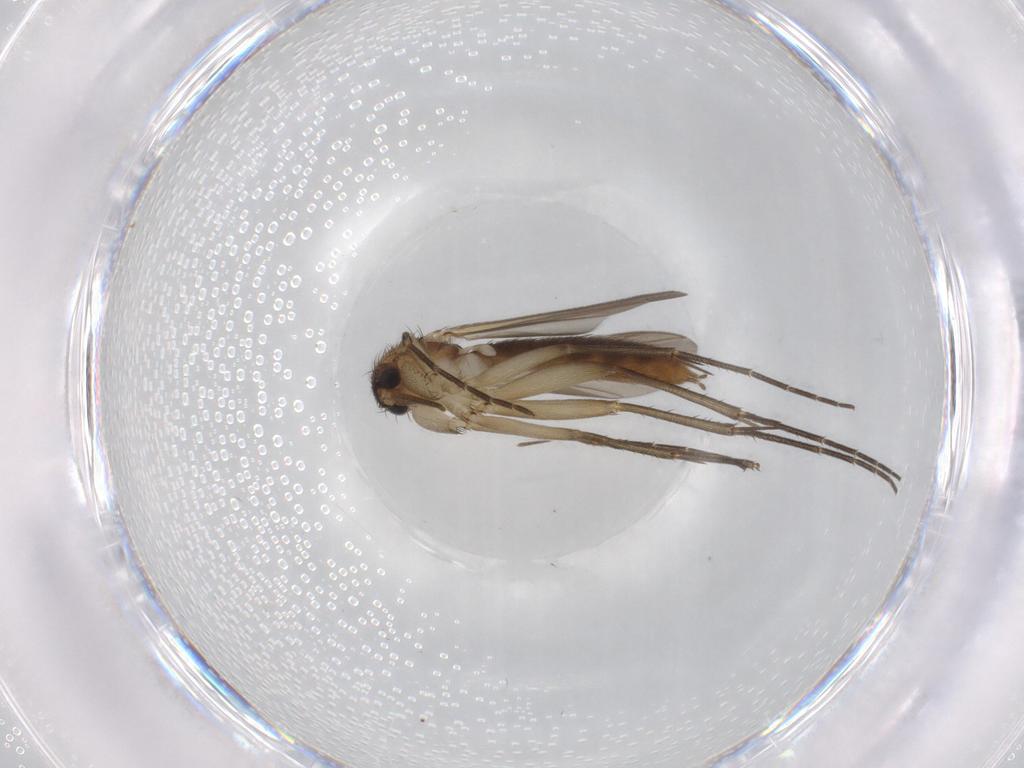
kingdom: Animalia
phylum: Arthropoda
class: Insecta
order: Diptera
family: Mycetophilidae
